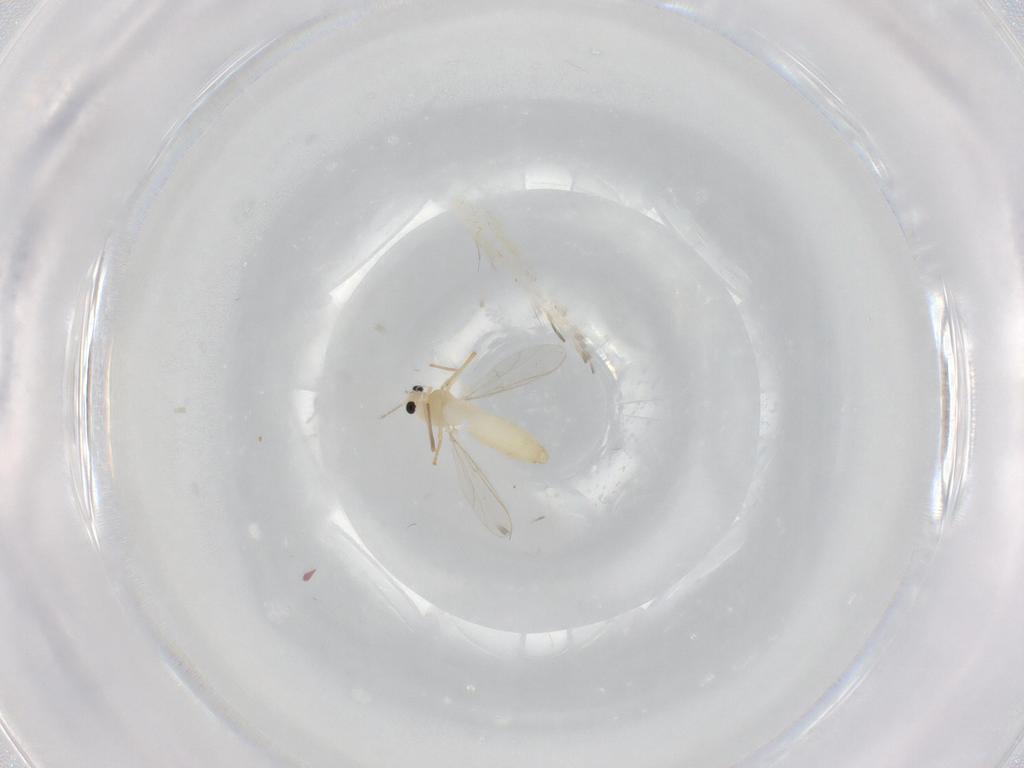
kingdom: Animalia
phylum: Arthropoda
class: Insecta
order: Diptera
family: Chironomidae
